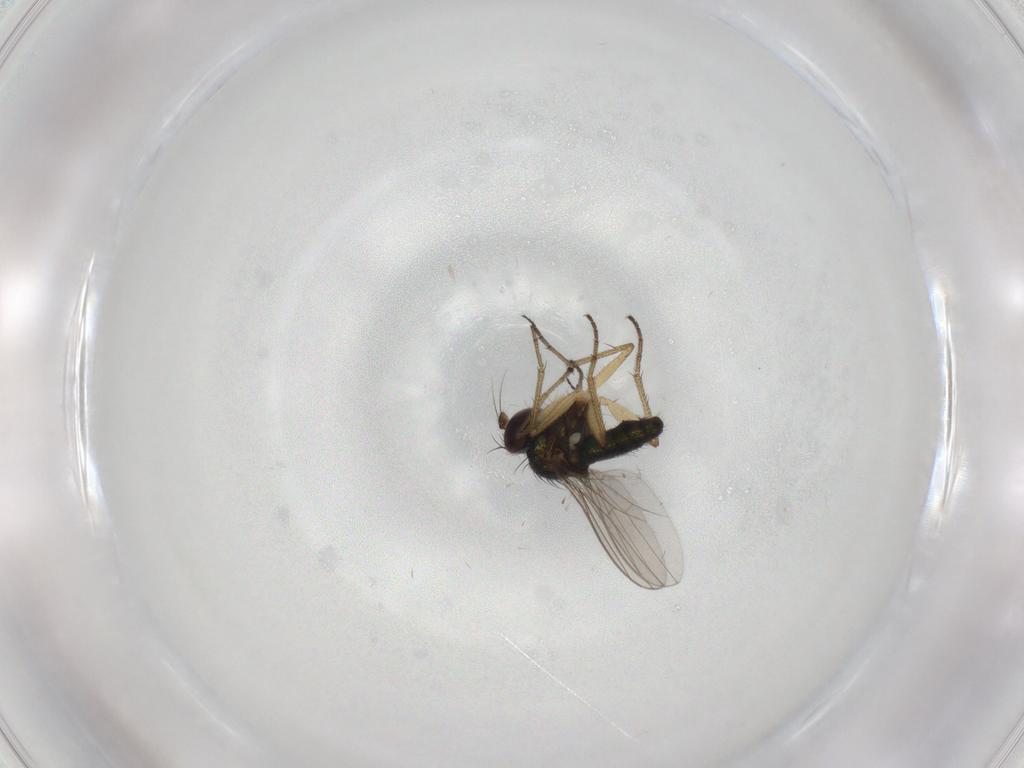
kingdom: Animalia
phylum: Arthropoda
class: Insecta
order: Diptera
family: Dolichopodidae
